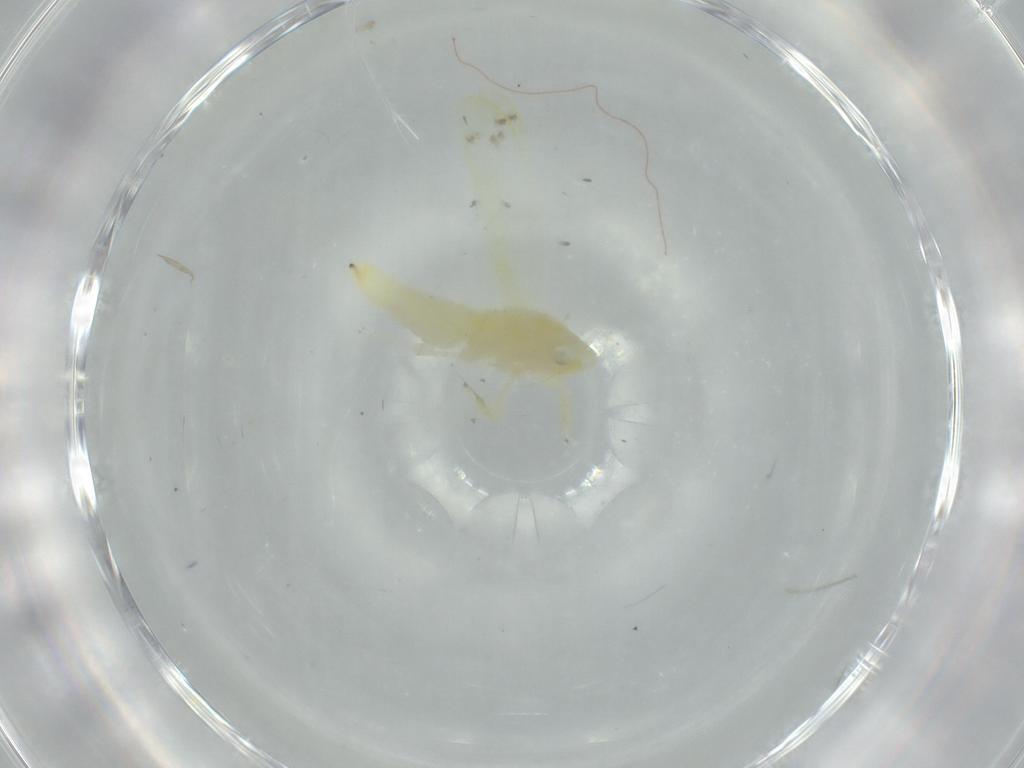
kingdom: Animalia
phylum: Arthropoda
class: Insecta
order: Hemiptera
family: Cicadellidae
